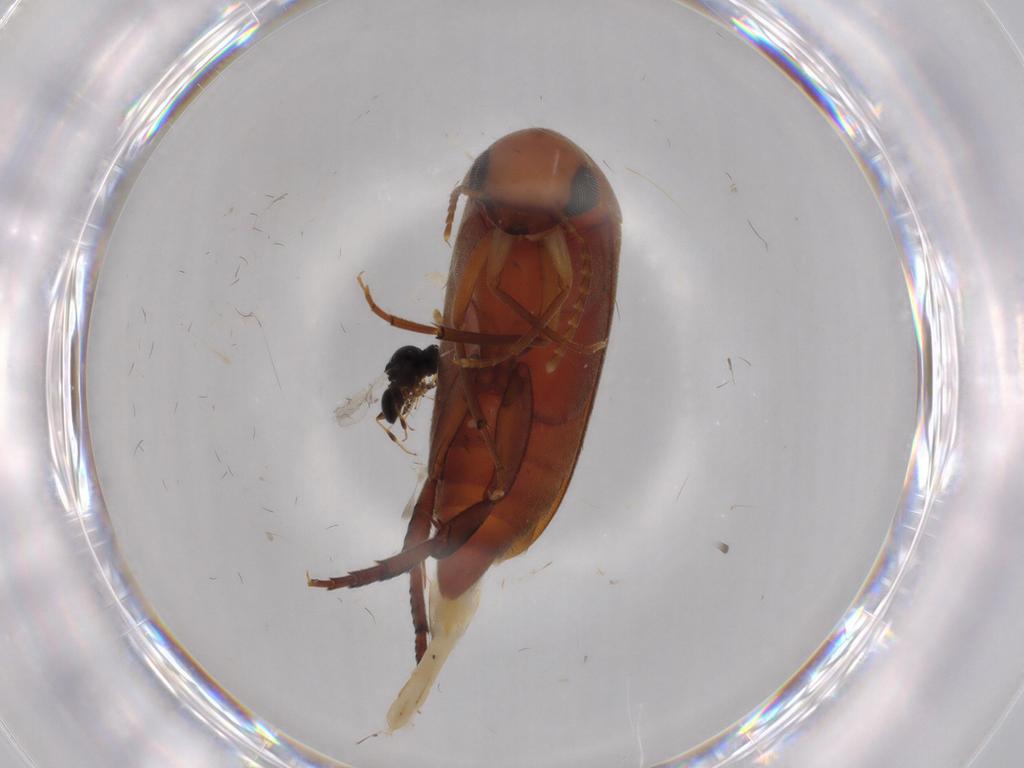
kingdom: Animalia
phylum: Arthropoda
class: Insecta
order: Coleoptera
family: Mordellidae
